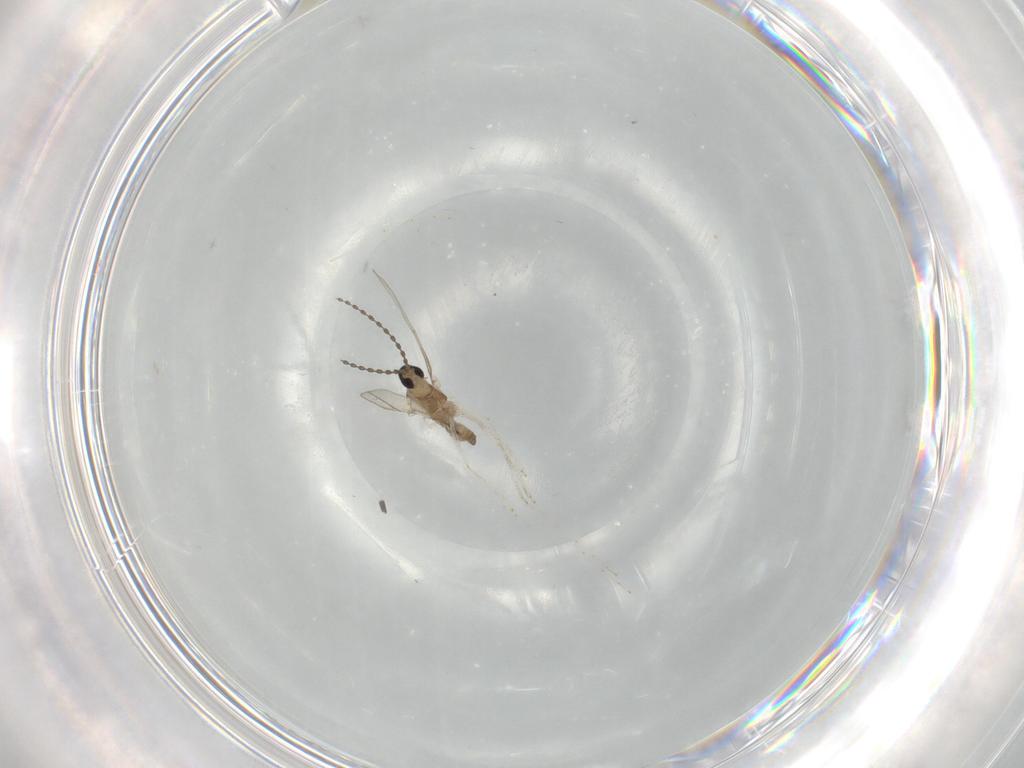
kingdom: Animalia
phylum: Arthropoda
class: Insecta
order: Diptera
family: Cecidomyiidae
